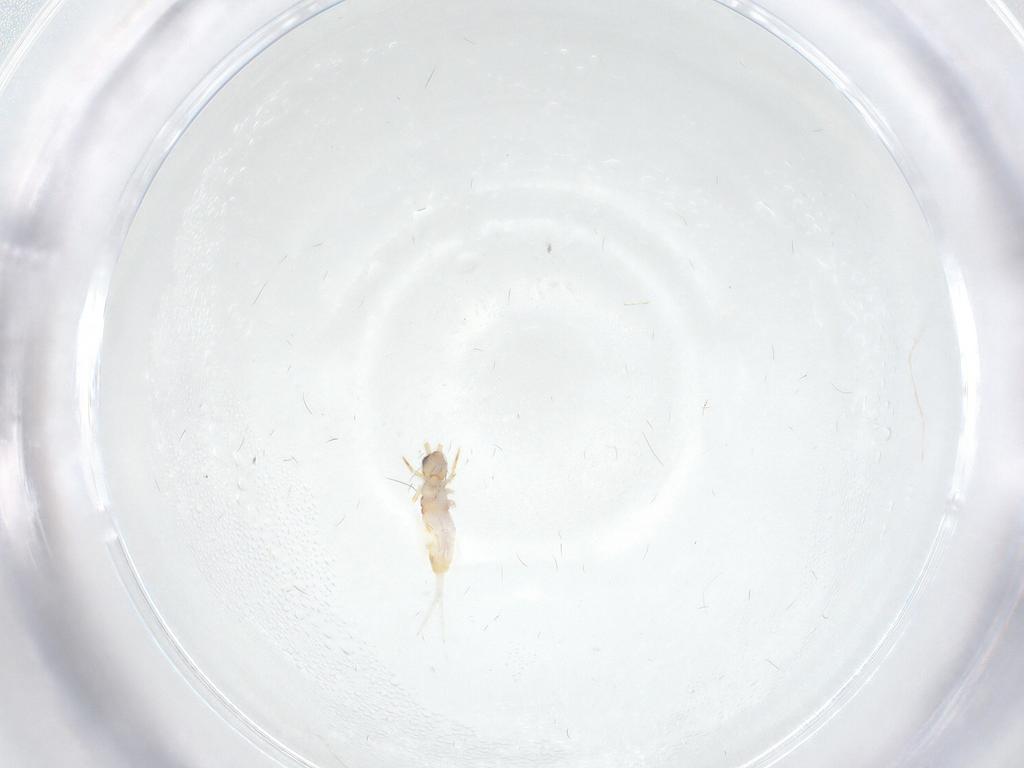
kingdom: Animalia
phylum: Arthropoda
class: Collembola
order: Entomobryomorpha
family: Entomobryidae
